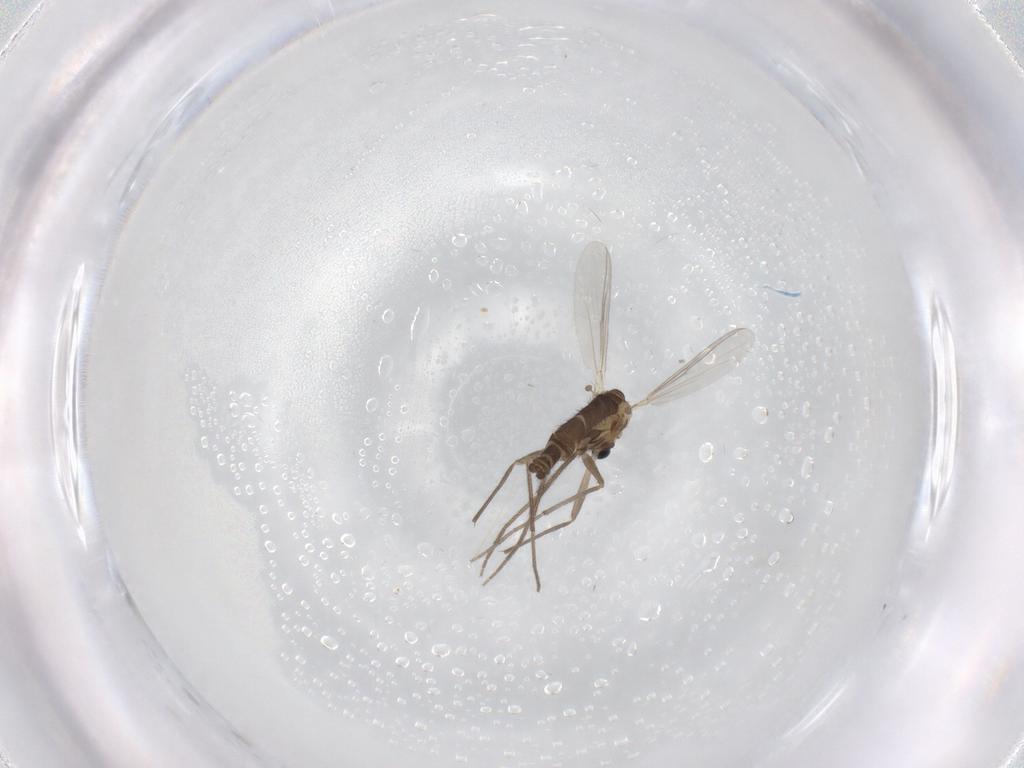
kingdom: Animalia
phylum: Arthropoda
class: Insecta
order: Diptera
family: Chironomidae
